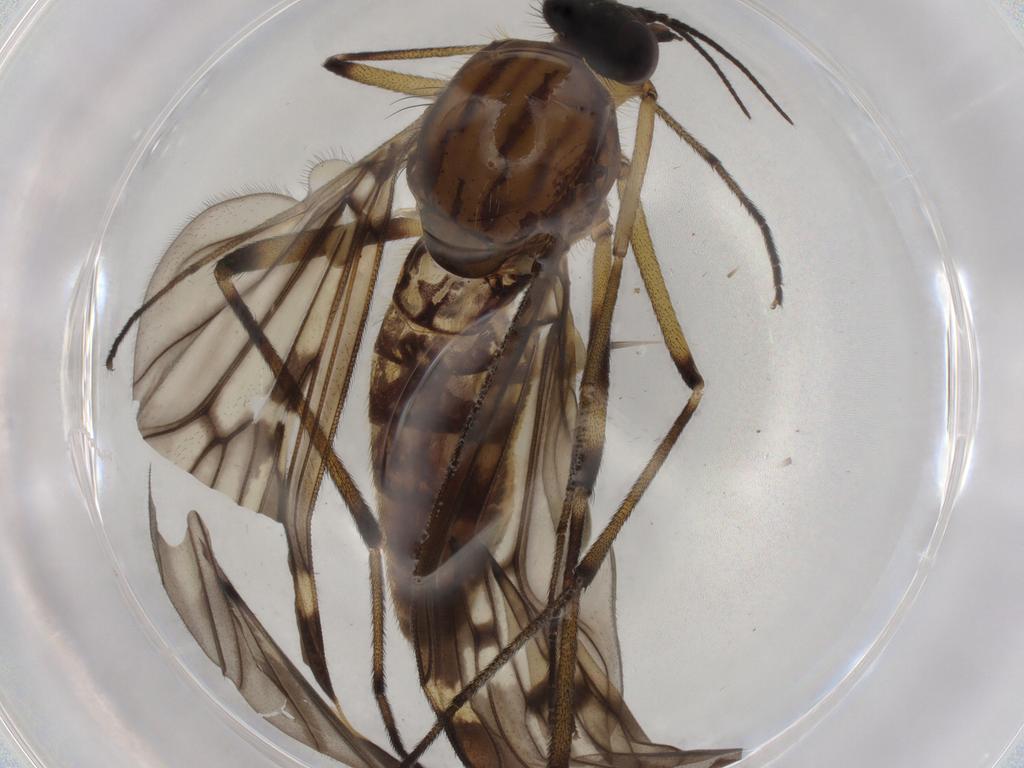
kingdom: Animalia
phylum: Arthropoda
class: Insecta
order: Diptera
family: Phoridae
